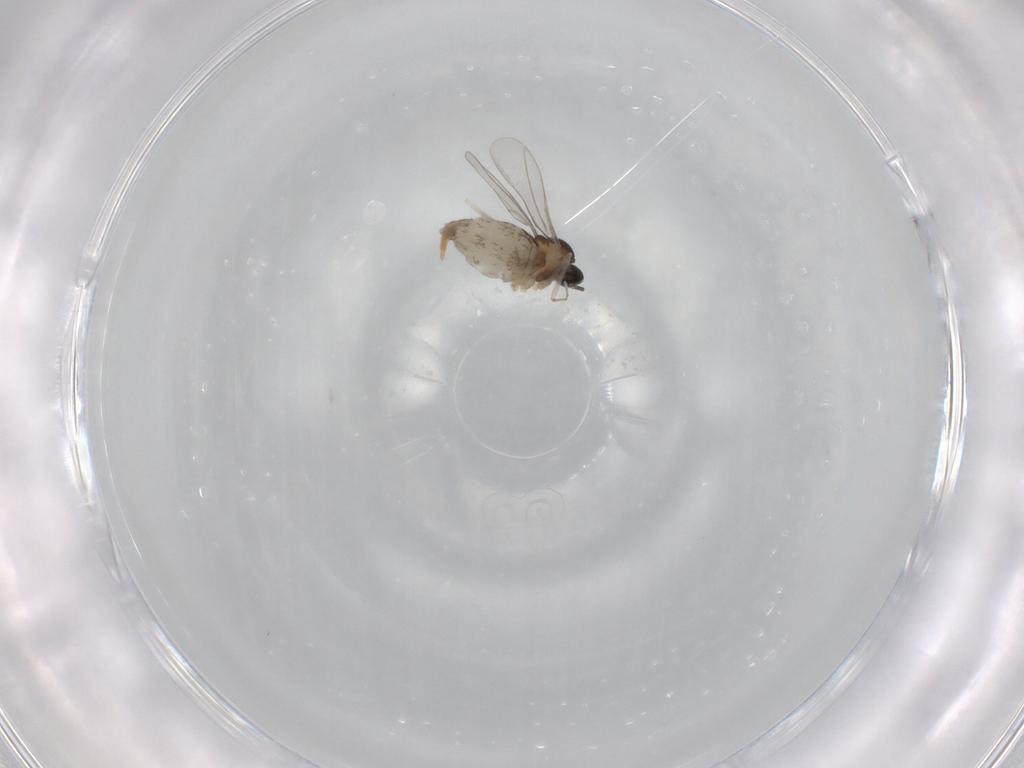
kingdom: Animalia
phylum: Arthropoda
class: Insecta
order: Diptera
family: Cecidomyiidae
